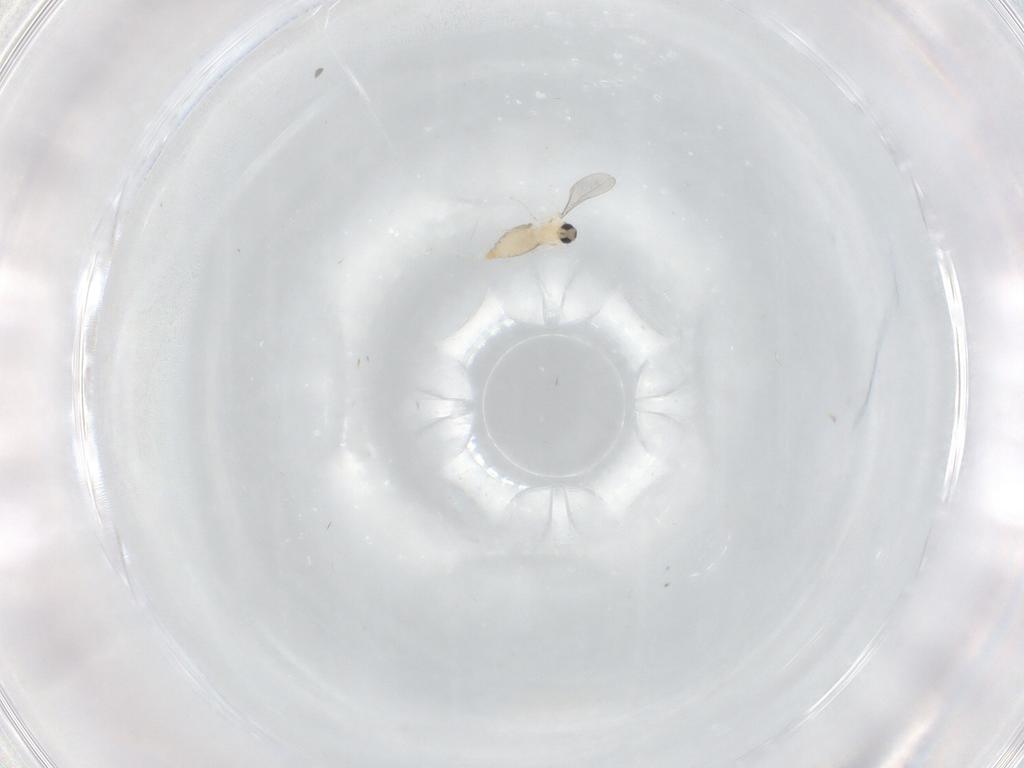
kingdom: Animalia
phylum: Arthropoda
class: Insecta
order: Diptera
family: Cecidomyiidae
